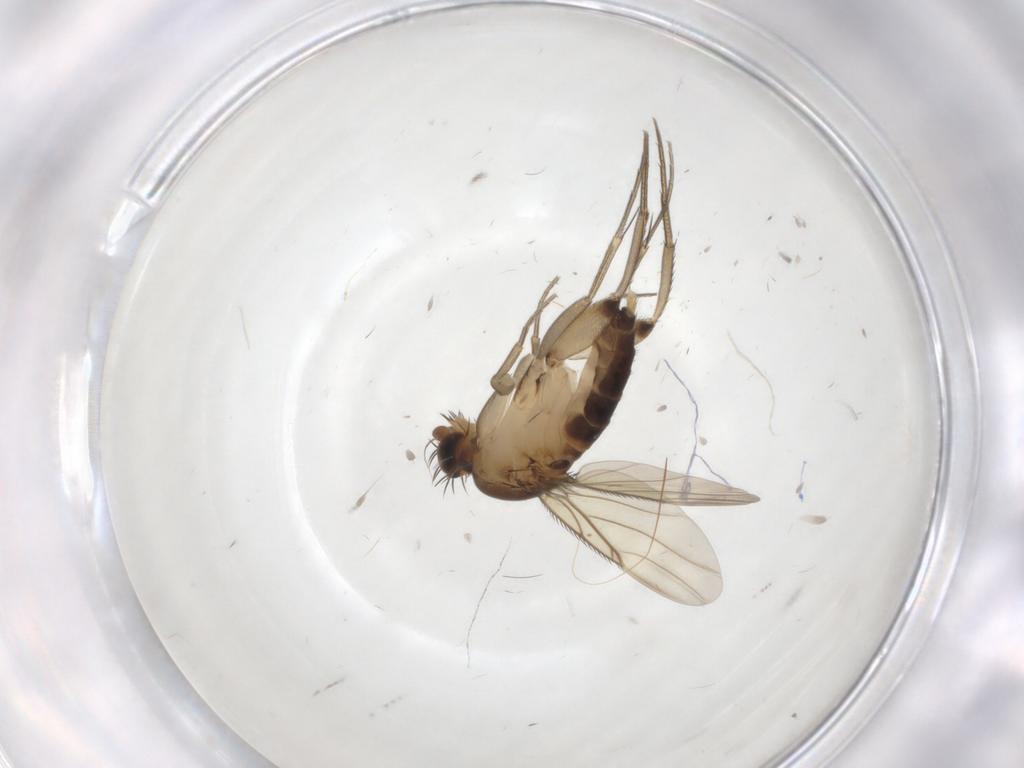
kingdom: Animalia
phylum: Arthropoda
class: Insecta
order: Diptera
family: Phoridae
